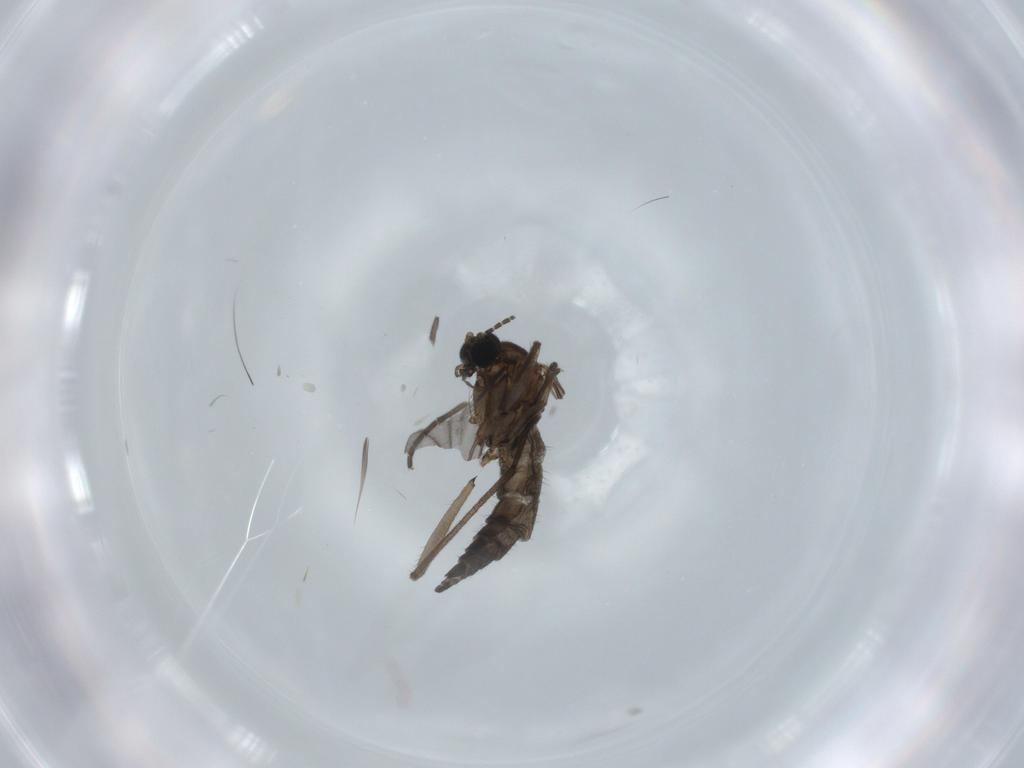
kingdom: Animalia
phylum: Arthropoda
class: Insecta
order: Diptera
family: Sciaridae
